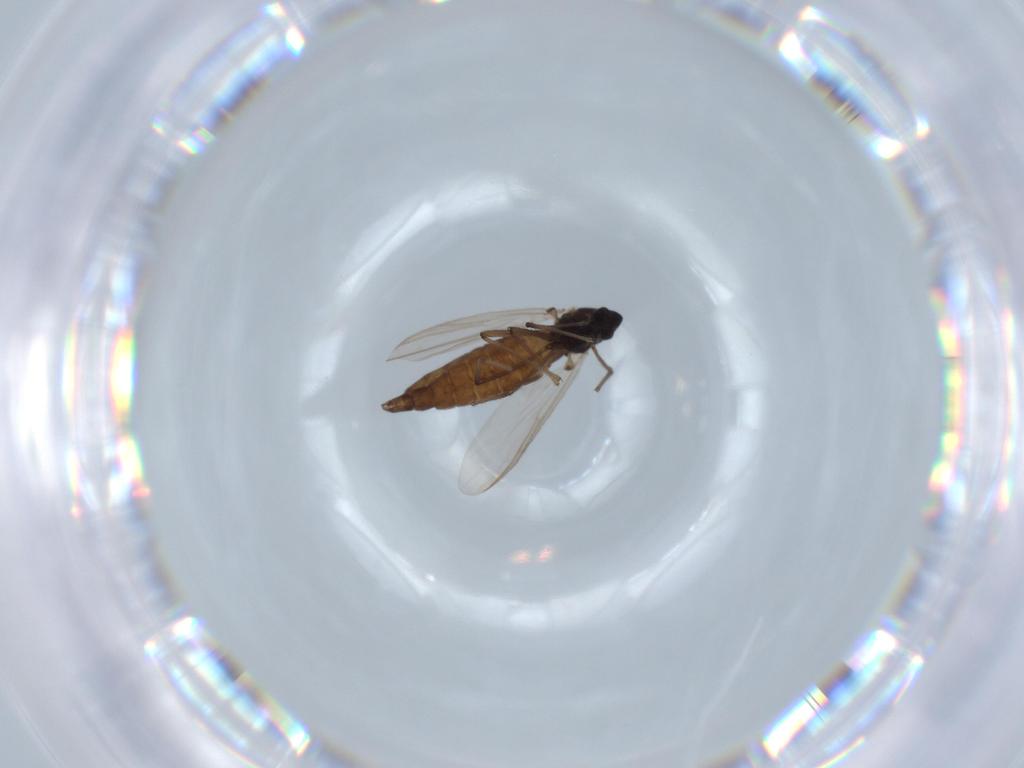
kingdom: Animalia
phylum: Arthropoda
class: Insecta
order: Diptera
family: Chironomidae
